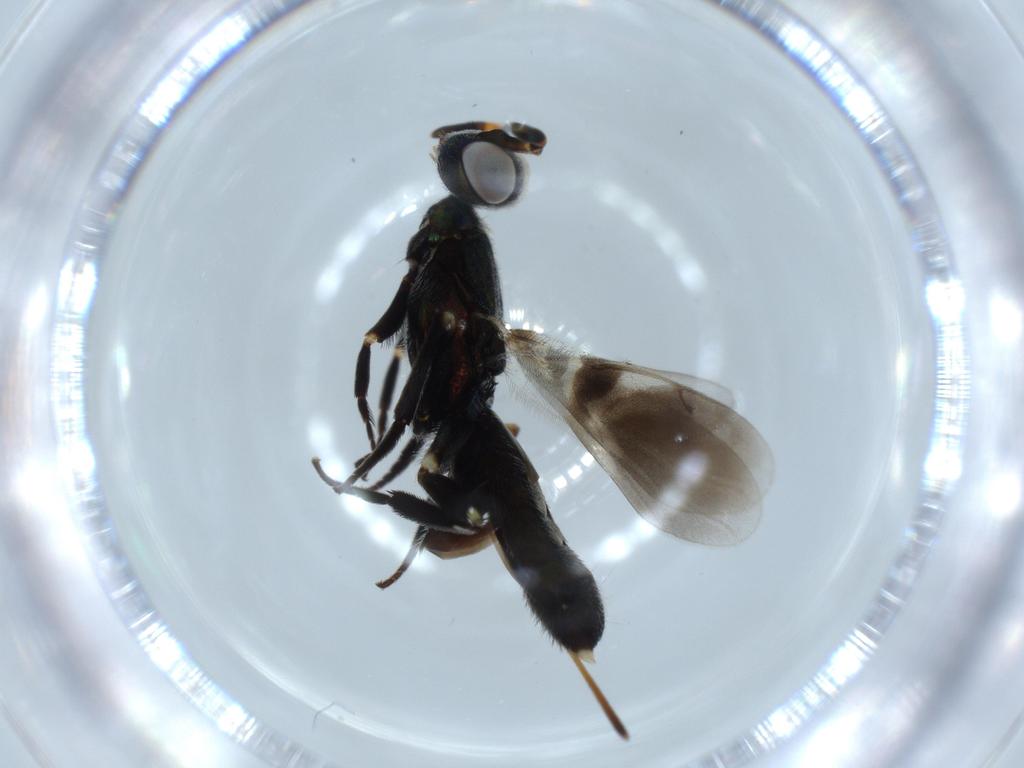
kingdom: Animalia
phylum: Arthropoda
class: Insecta
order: Hymenoptera
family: Eupelmidae
